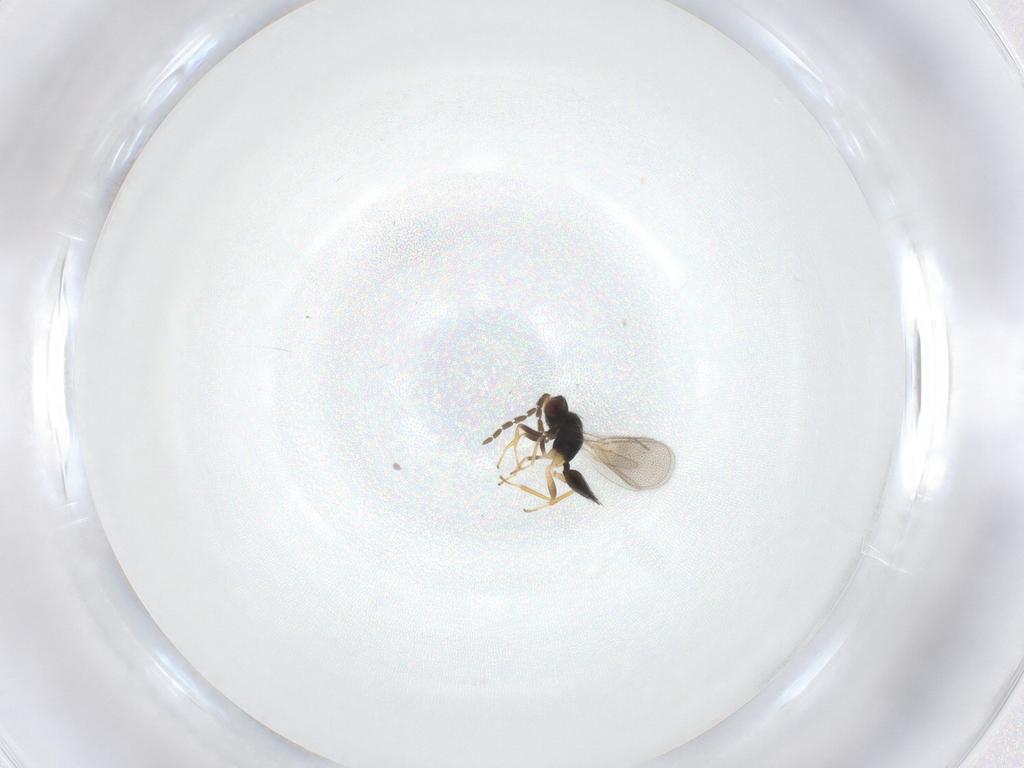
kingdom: Animalia
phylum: Arthropoda
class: Insecta
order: Hymenoptera
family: Eulophidae
